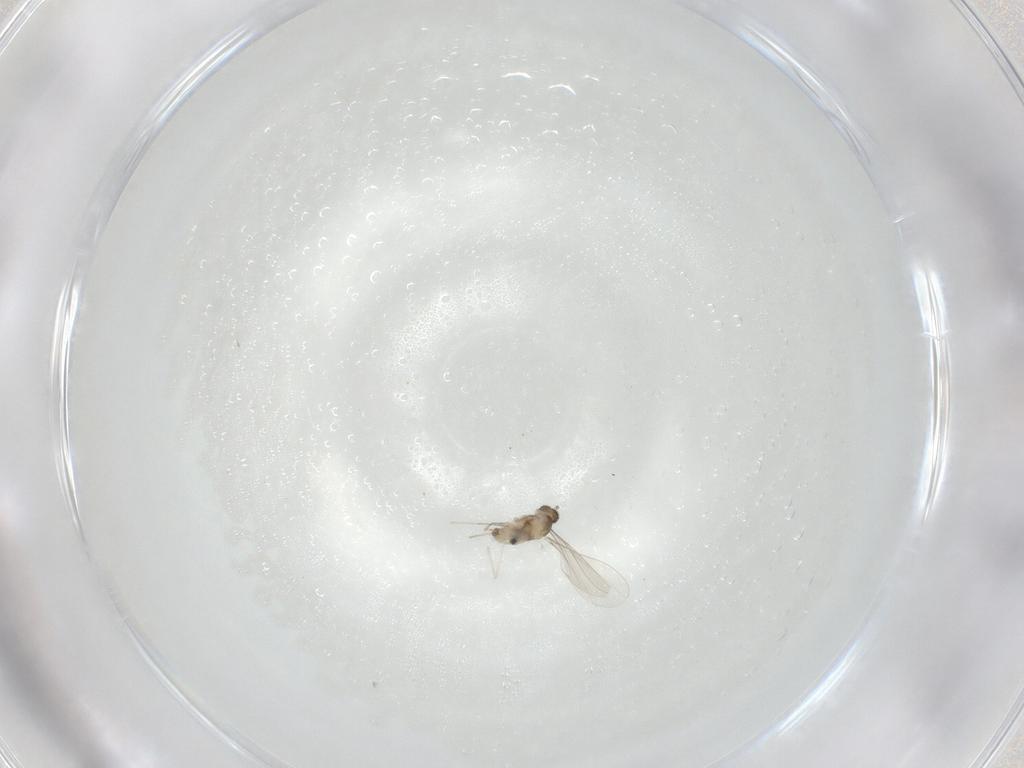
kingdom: Animalia
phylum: Arthropoda
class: Insecta
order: Diptera
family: Cecidomyiidae
